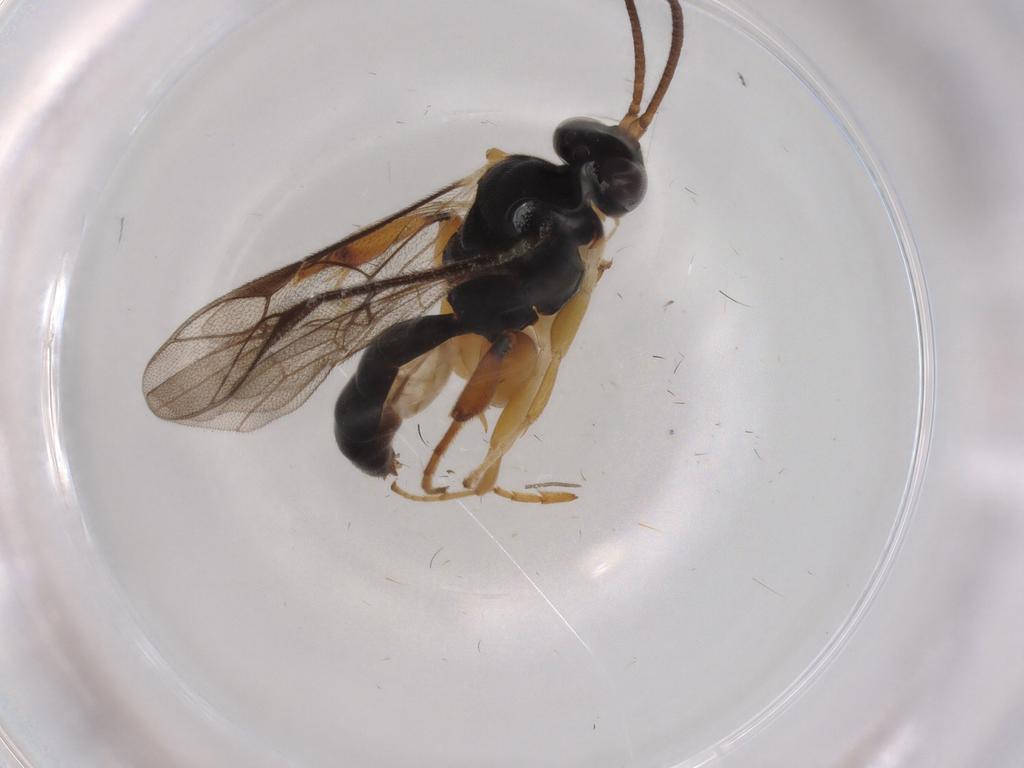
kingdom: Animalia
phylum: Arthropoda
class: Insecta
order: Hymenoptera
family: Ichneumonidae
